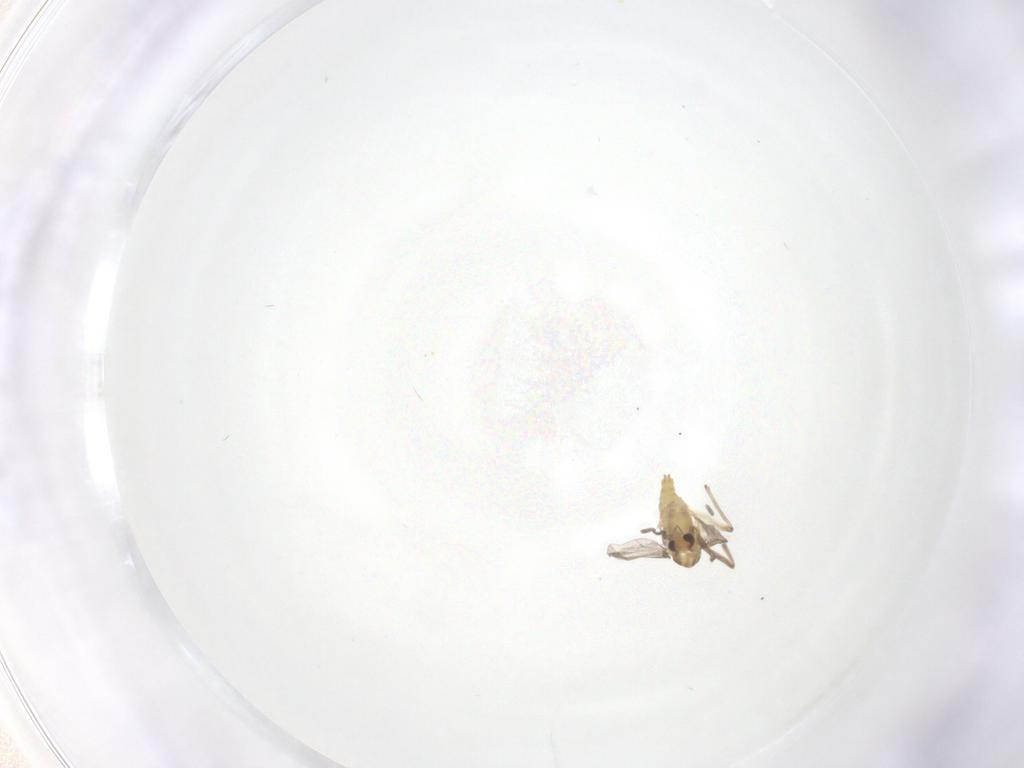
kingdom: Animalia
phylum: Arthropoda
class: Insecta
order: Diptera
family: Chironomidae
